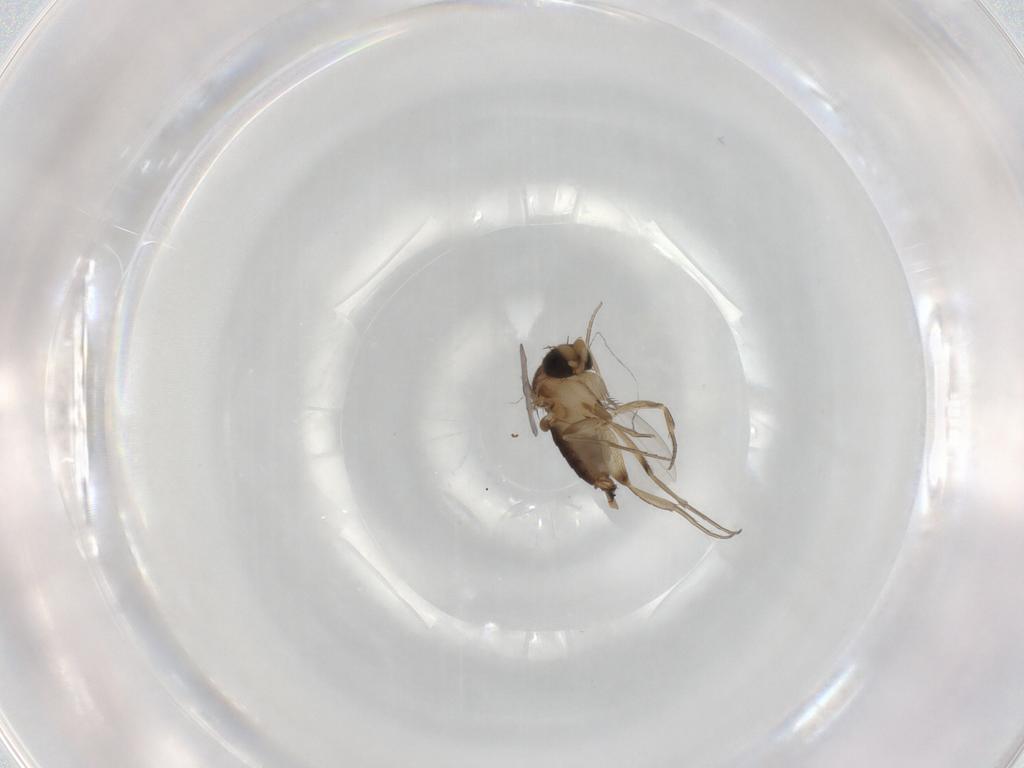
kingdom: Animalia
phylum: Arthropoda
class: Insecta
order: Diptera
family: Phoridae
